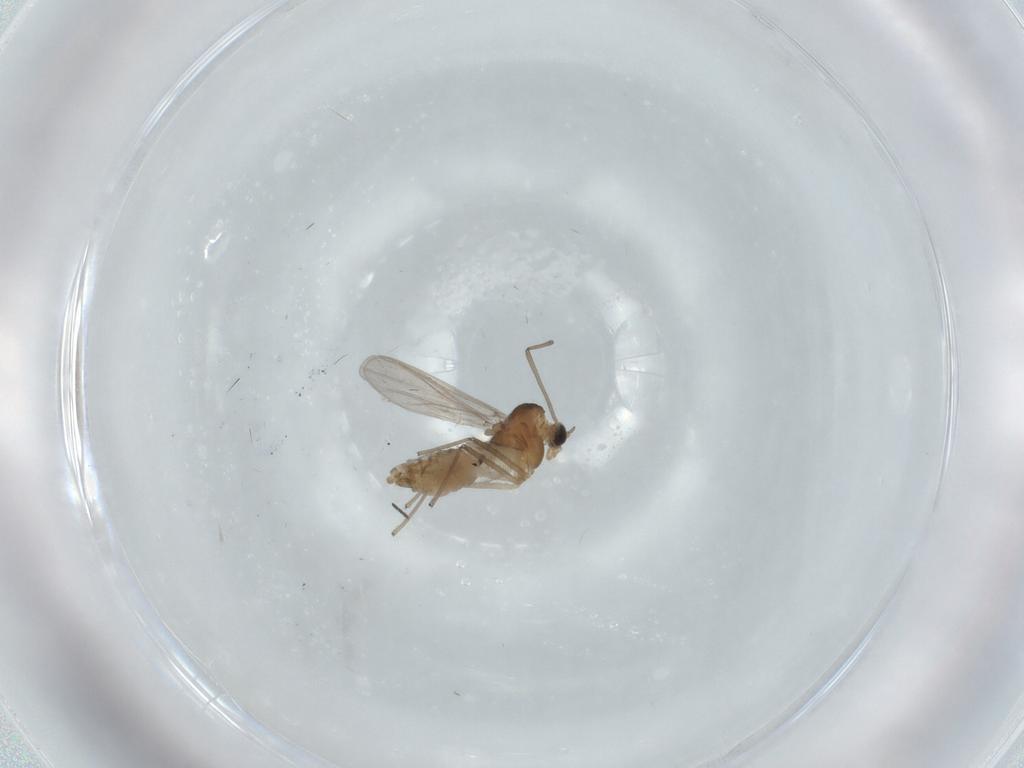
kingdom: Animalia
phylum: Arthropoda
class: Insecta
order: Diptera
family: Chironomidae
